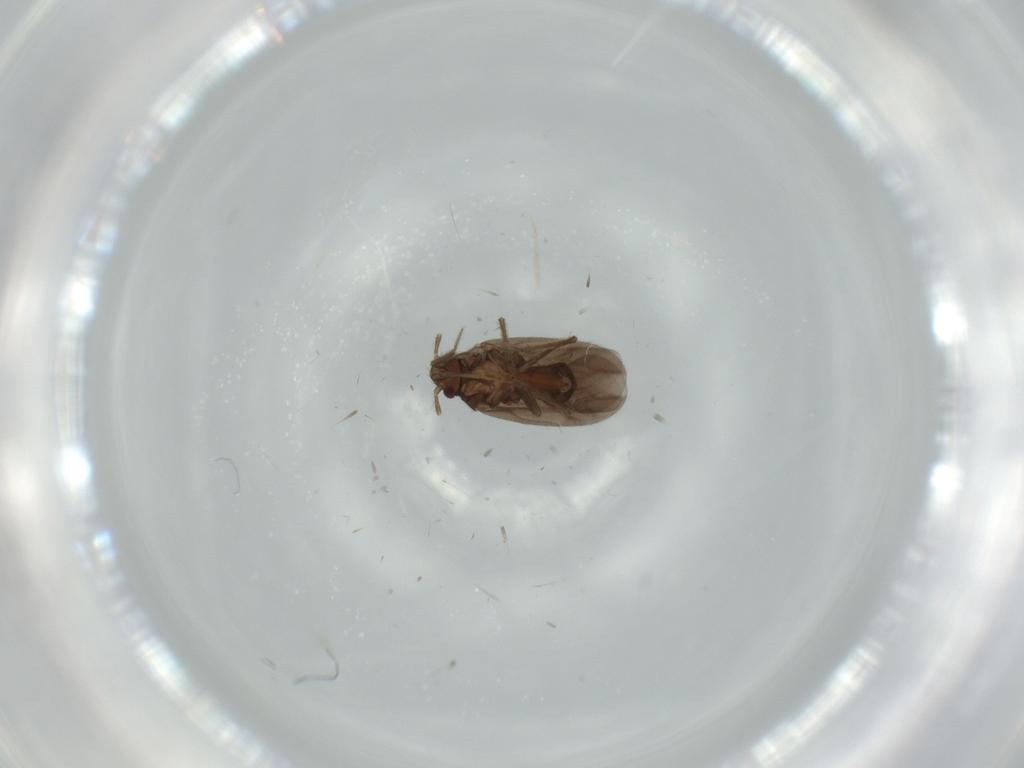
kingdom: Animalia
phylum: Arthropoda
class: Insecta
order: Hemiptera
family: Ceratocombidae
